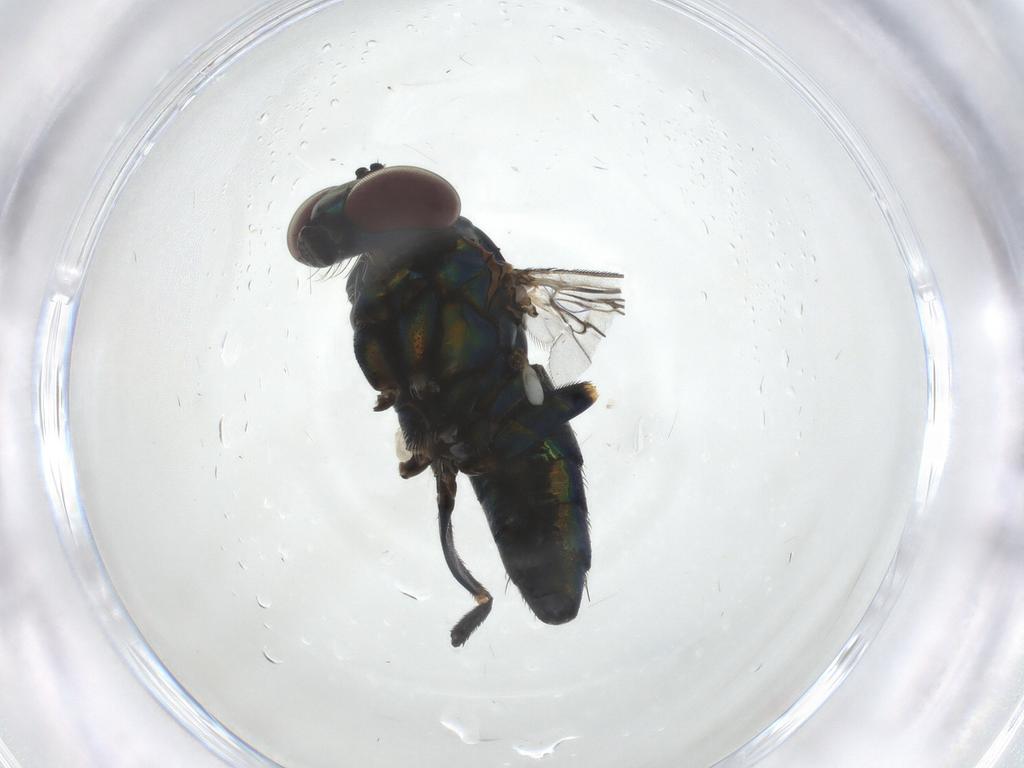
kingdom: Animalia
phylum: Arthropoda
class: Insecta
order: Diptera
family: Dolichopodidae
